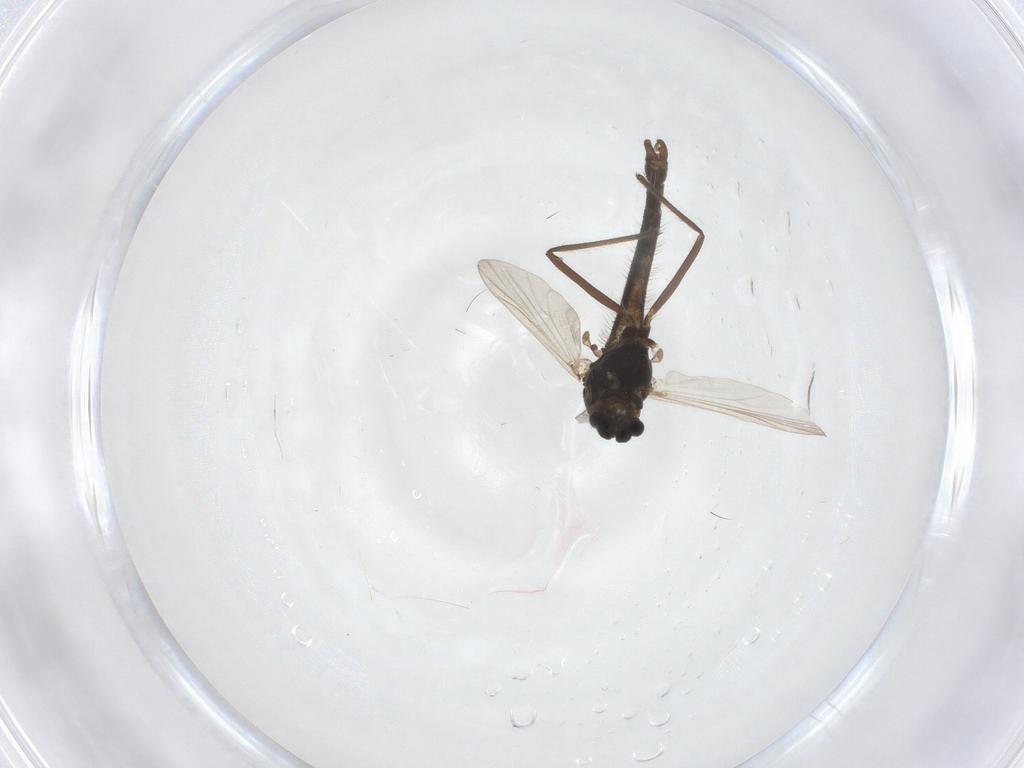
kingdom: Animalia
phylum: Arthropoda
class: Insecta
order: Diptera
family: Chironomidae
